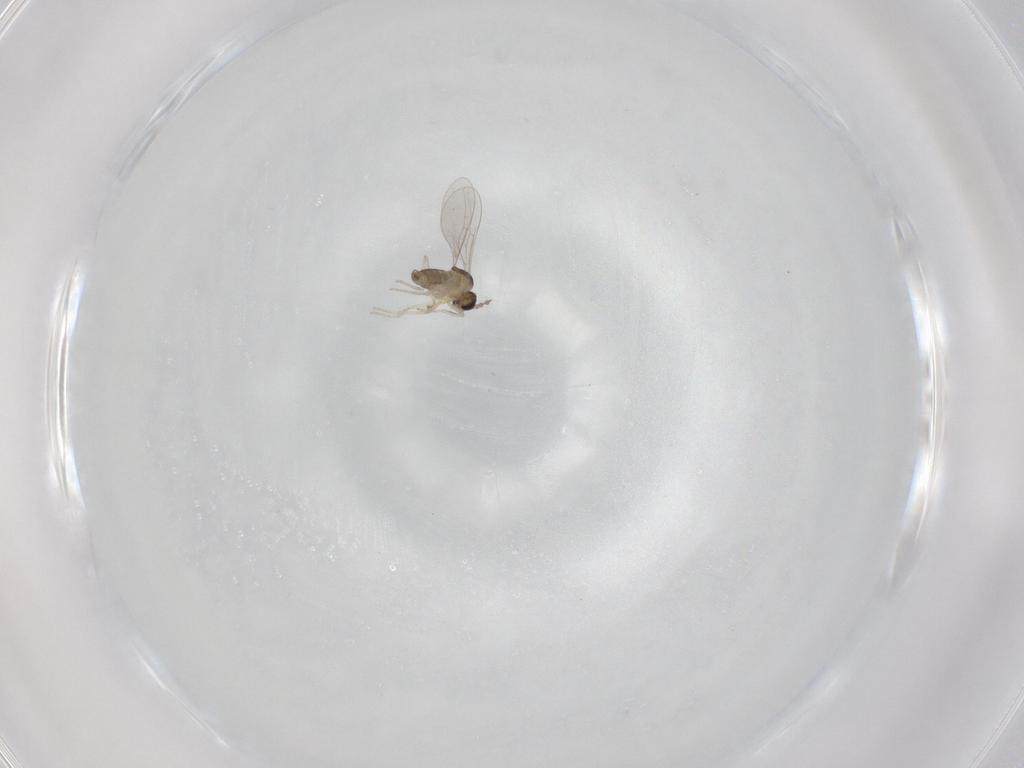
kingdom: Animalia
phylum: Arthropoda
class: Insecta
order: Diptera
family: Cecidomyiidae
